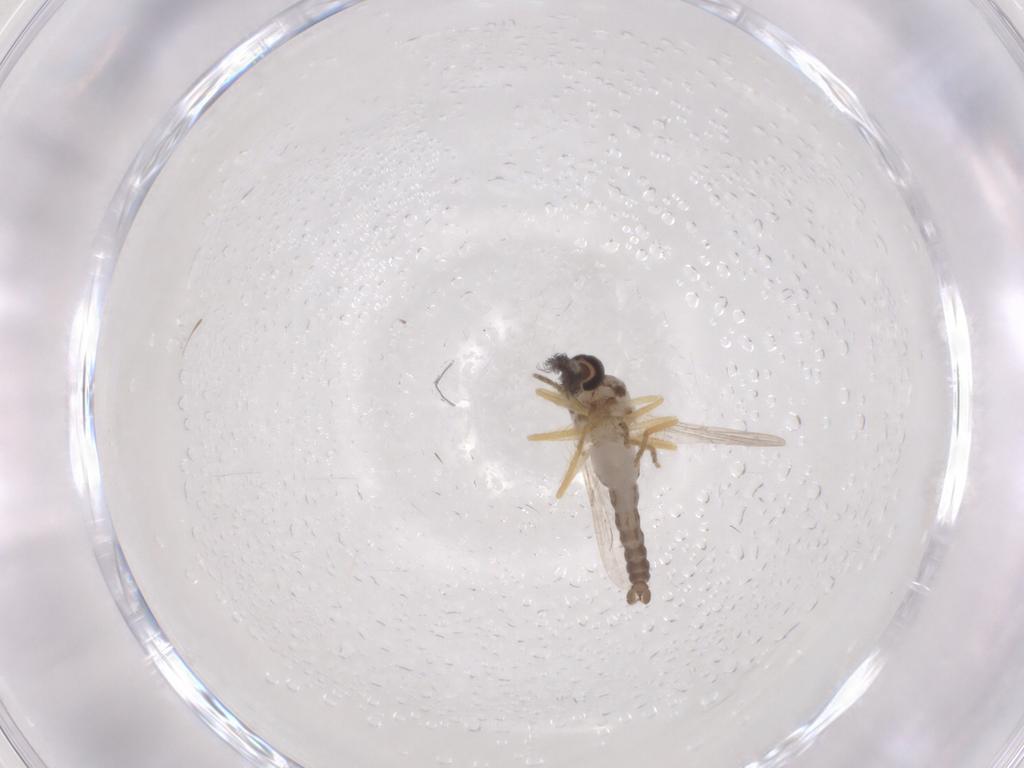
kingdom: Animalia
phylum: Arthropoda
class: Insecta
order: Diptera
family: Ceratopogonidae
